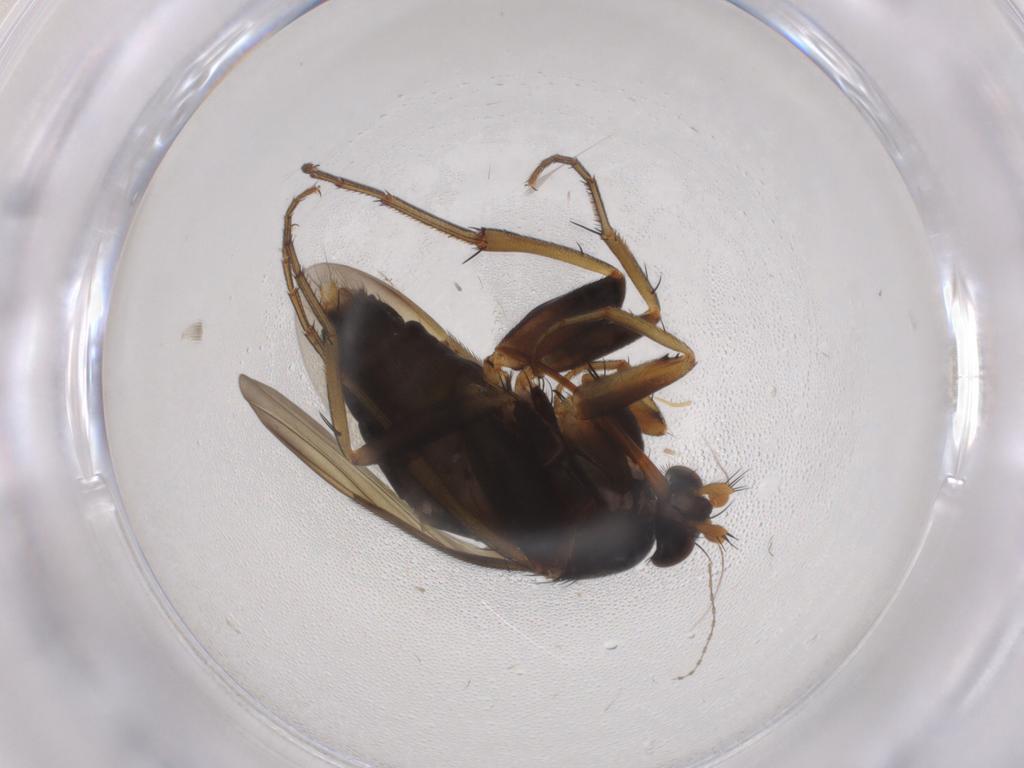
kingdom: Animalia
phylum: Arthropoda
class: Insecta
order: Diptera
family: Phoridae
